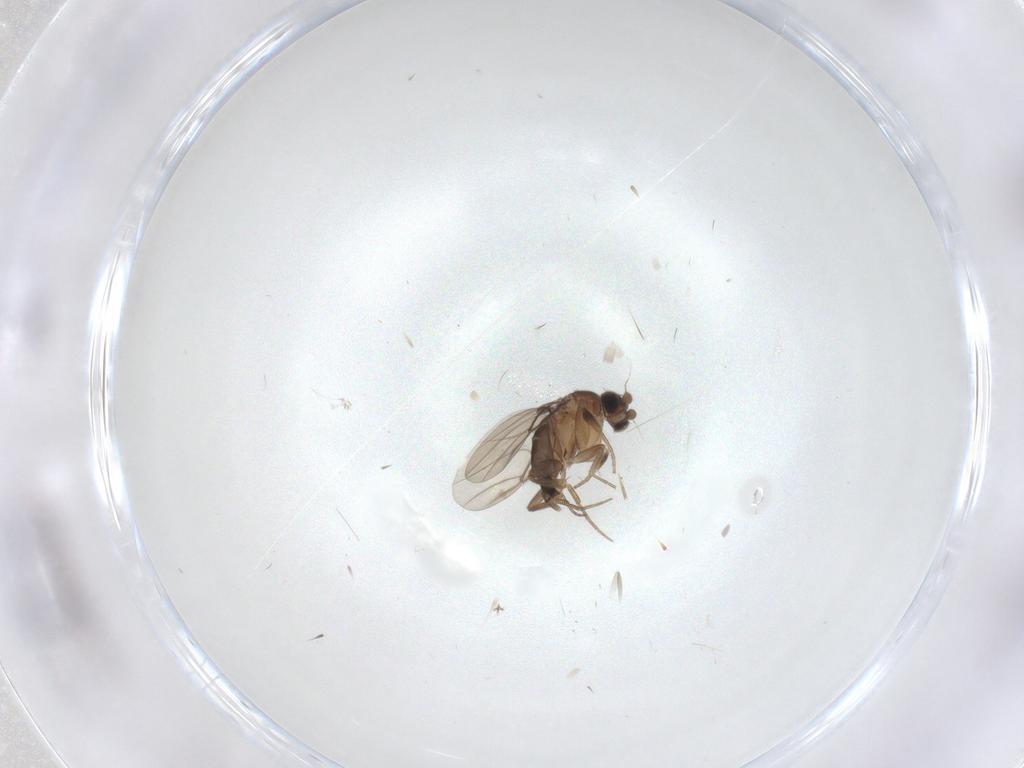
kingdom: Animalia
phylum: Arthropoda
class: Insecta
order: Diptera
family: Phoridae
